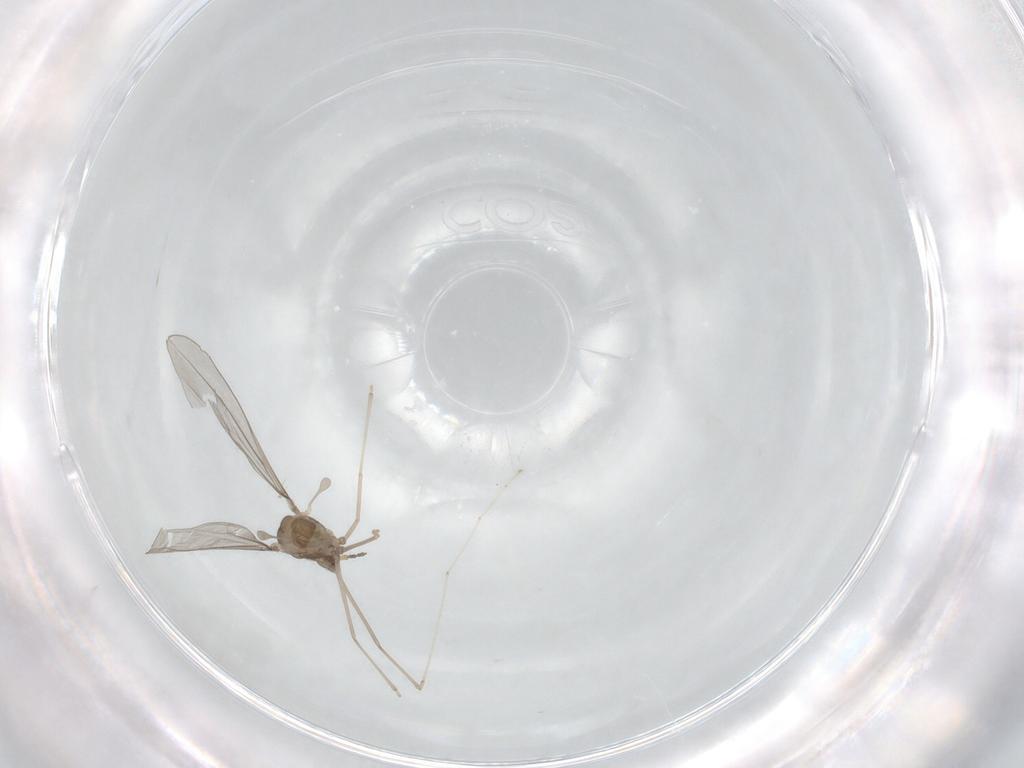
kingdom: Animalia
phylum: Arthropoda
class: Insecta
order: Diptera
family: Cecidomyiidae
